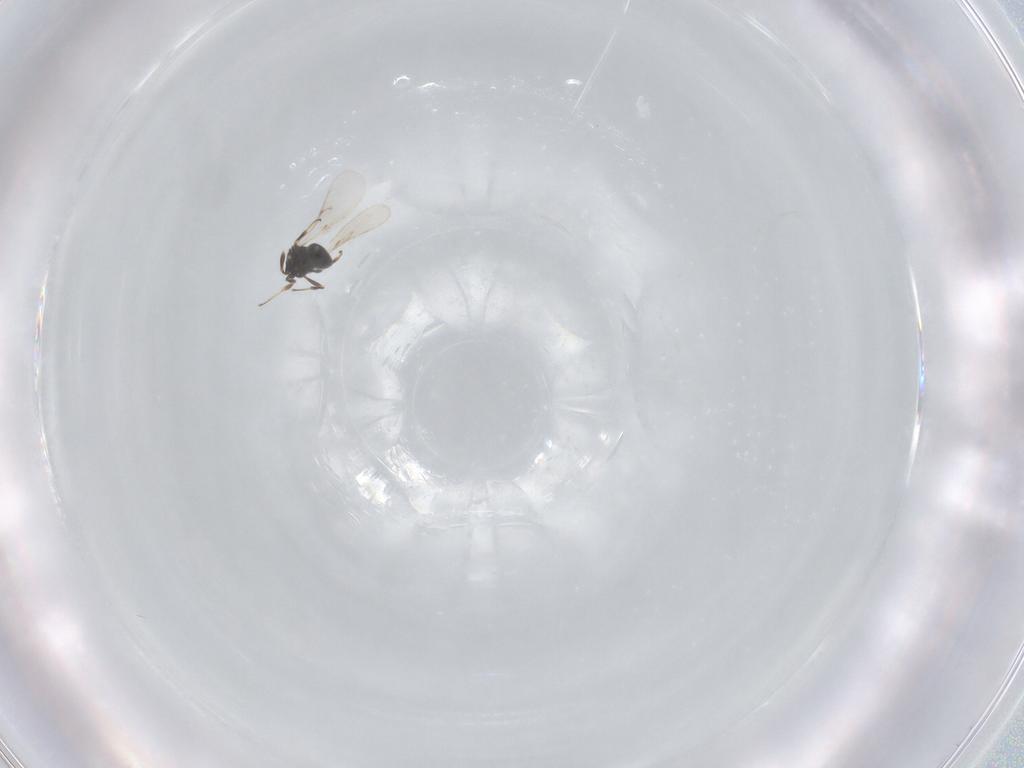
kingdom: Animalia
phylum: Arthropoda
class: Insecta
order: Hymenoptera
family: Scelionidae
